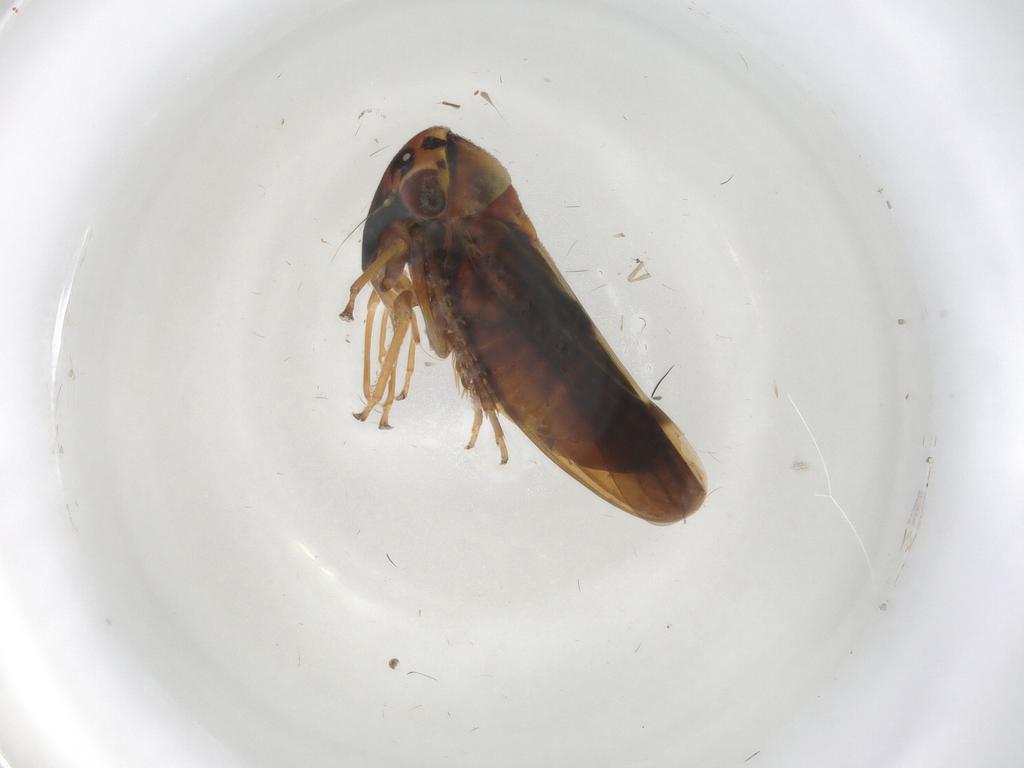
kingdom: Animalia
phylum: Arthropoda
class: Insecta
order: Hemiptera
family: Cicadellidae
